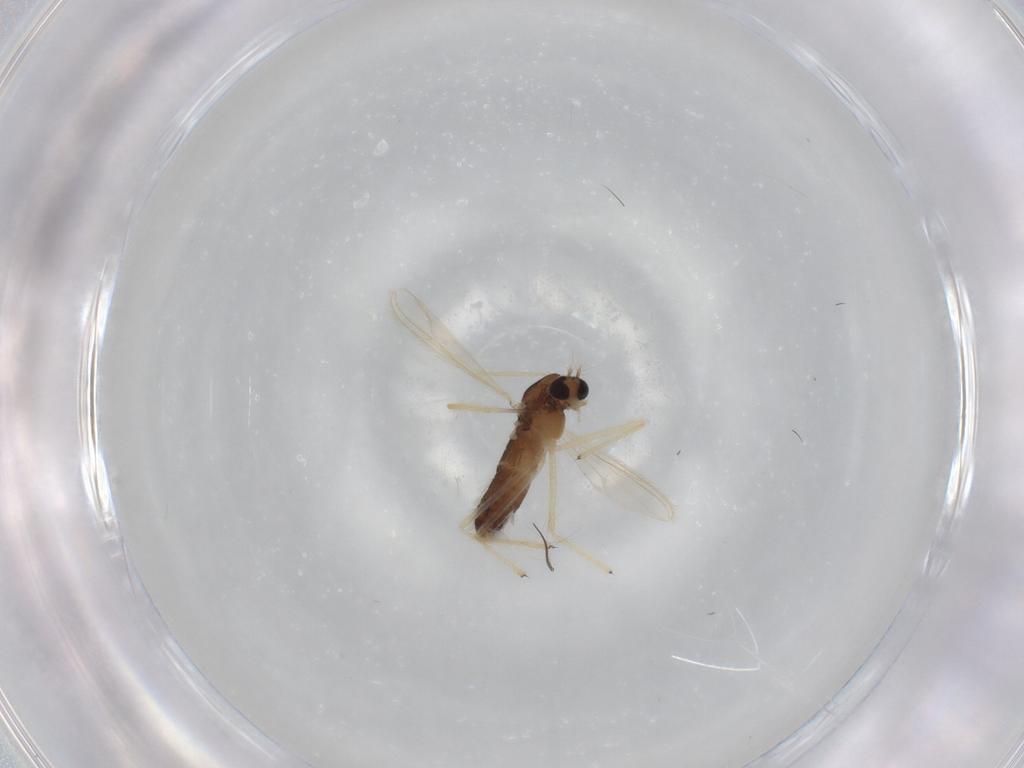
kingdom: Animalia
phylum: Arthropoda
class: Insecta
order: Diptera
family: Chironomidae
